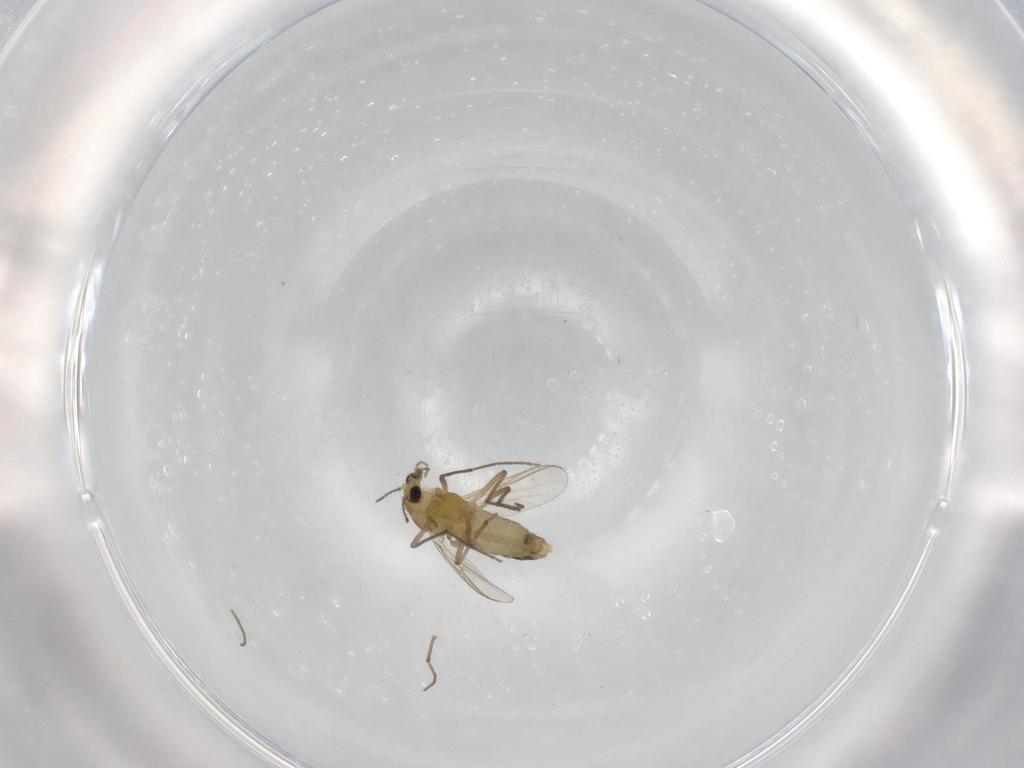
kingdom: Animalia
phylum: Arthropoda
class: Insecta
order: Diptera
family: Chironomidae
